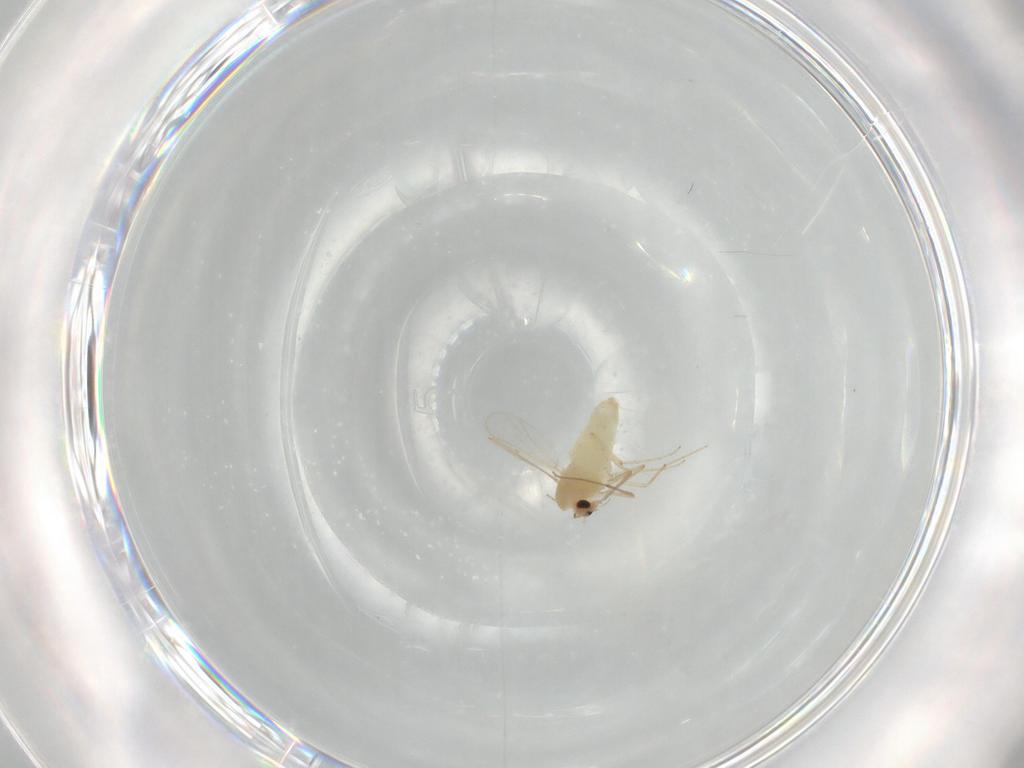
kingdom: Animalia
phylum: Arthropoda
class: Insecta
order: Diptera
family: Chironomidae
